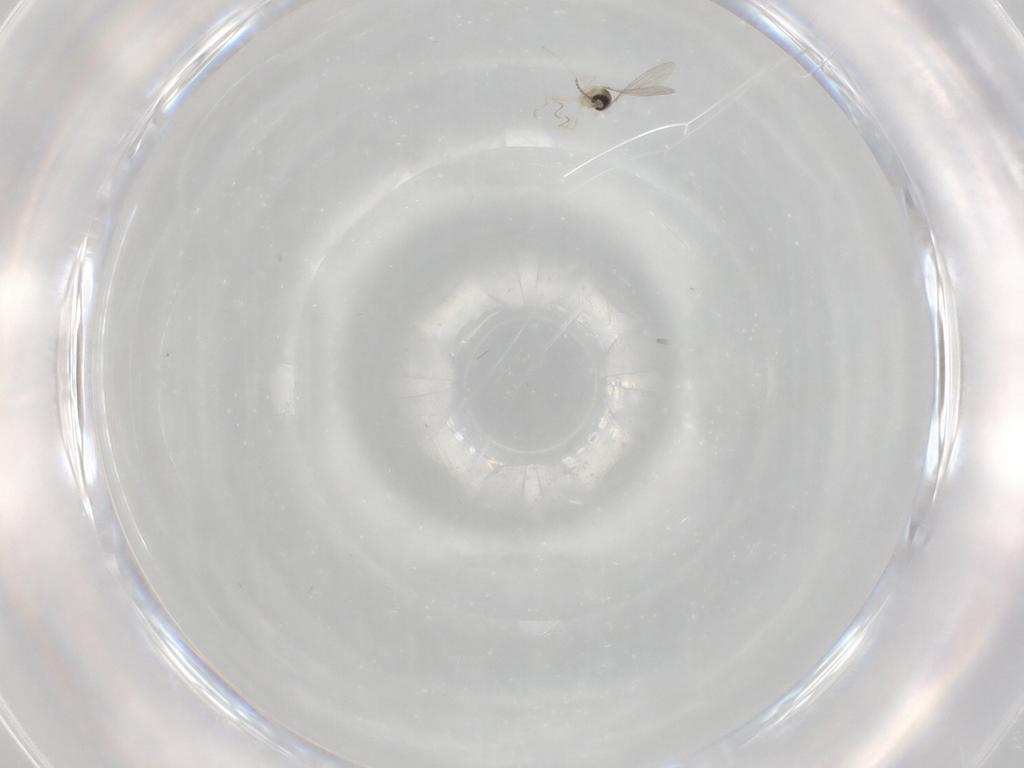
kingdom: Animalia
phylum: Arthropoda
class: Insecta
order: Diptera
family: Cecidomyiidae
